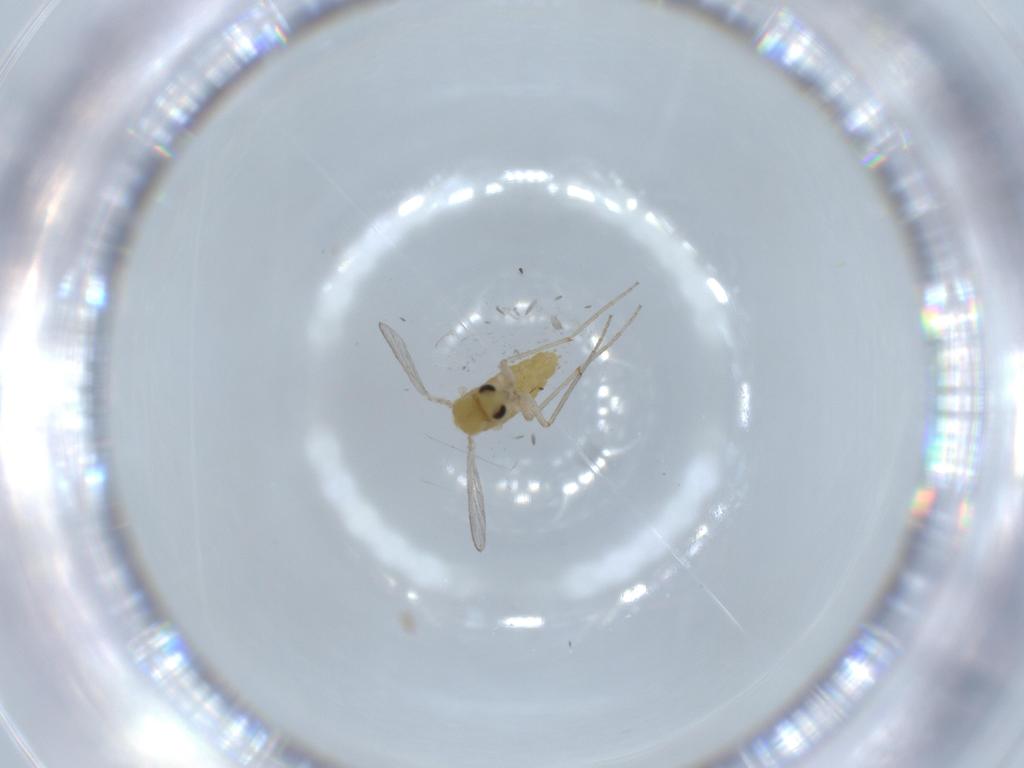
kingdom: Animalia
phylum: Arthropoda
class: Insecta
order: Diptera
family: Chironomidae
